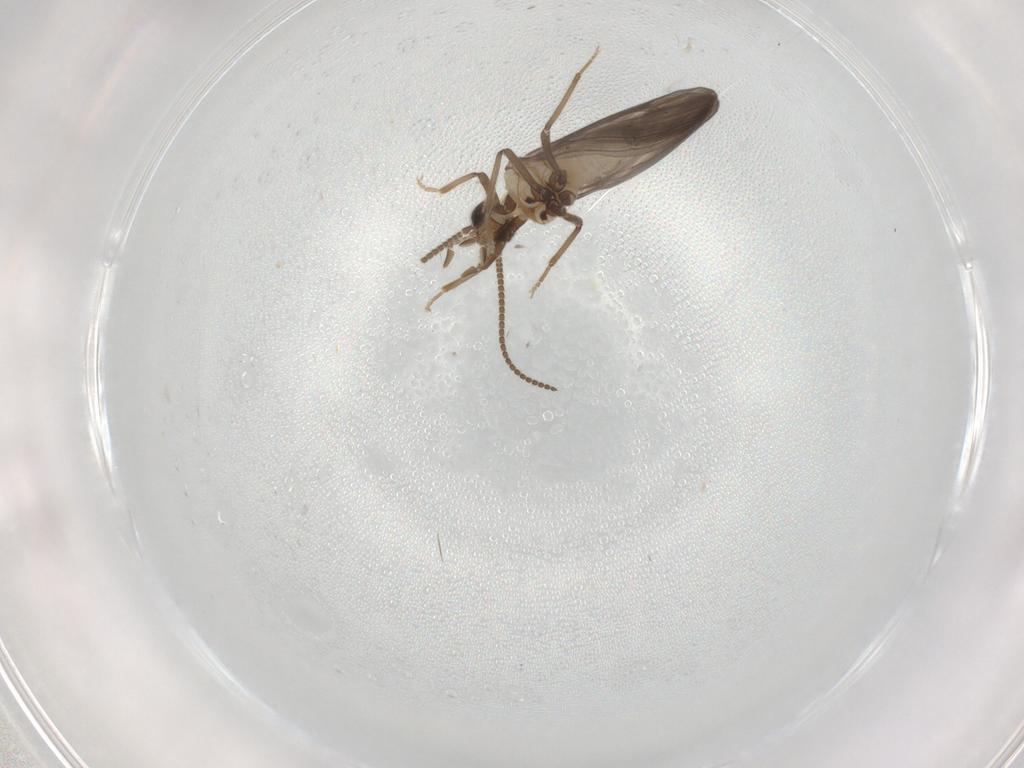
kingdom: Animalia
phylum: Arthropoda
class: Insecta
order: Neuroptera
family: Coniopterygidae
